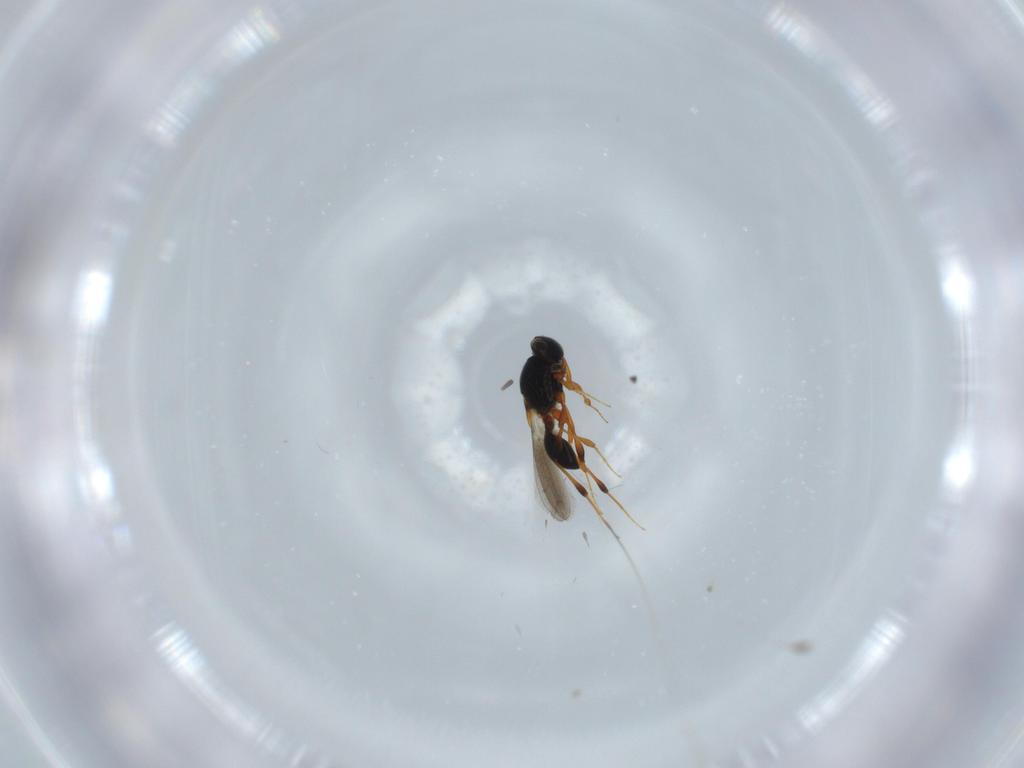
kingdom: Animalia
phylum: Arthropoda
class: Insecta
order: Hymenoptera
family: Platygastridae
